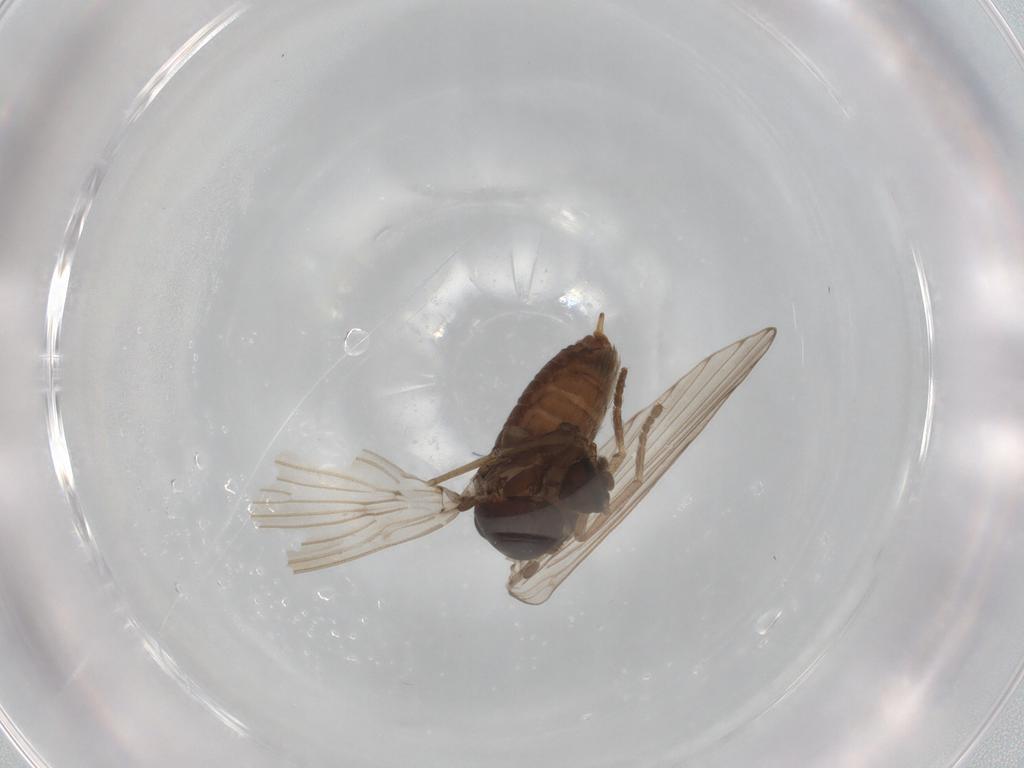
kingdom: Animalia
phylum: Arthropoda
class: Insecta
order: Diptera
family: Psychodidae
